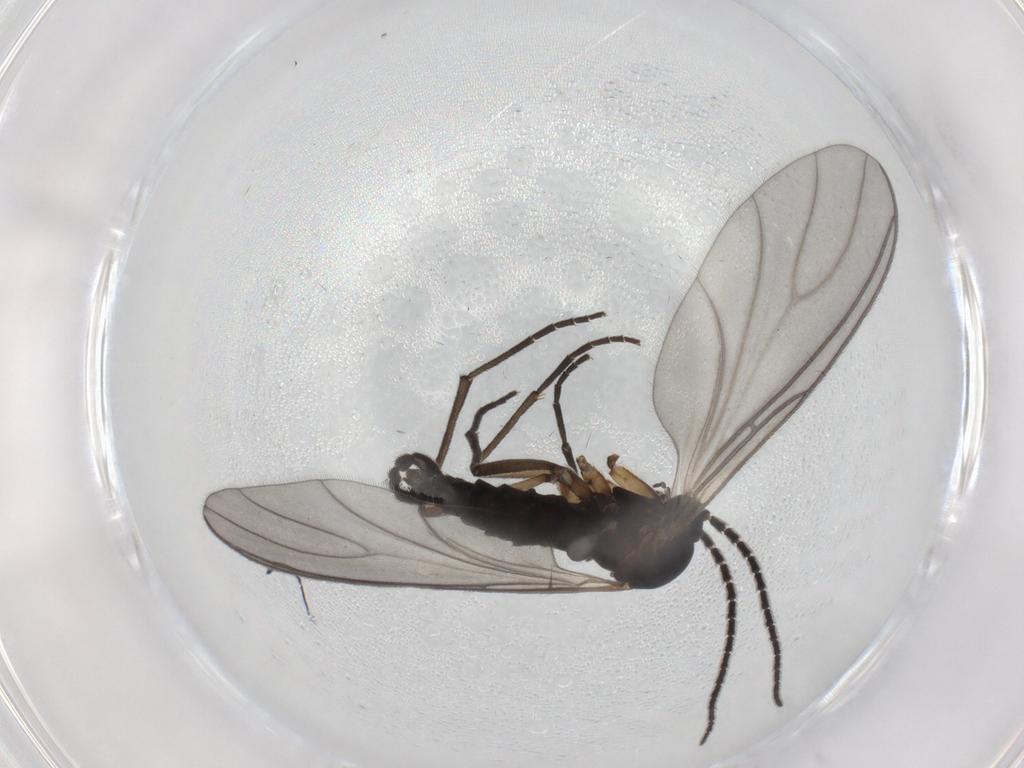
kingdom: Animalia
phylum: Arthropoda
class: Insecta
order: Diptera
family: Sciaridae
